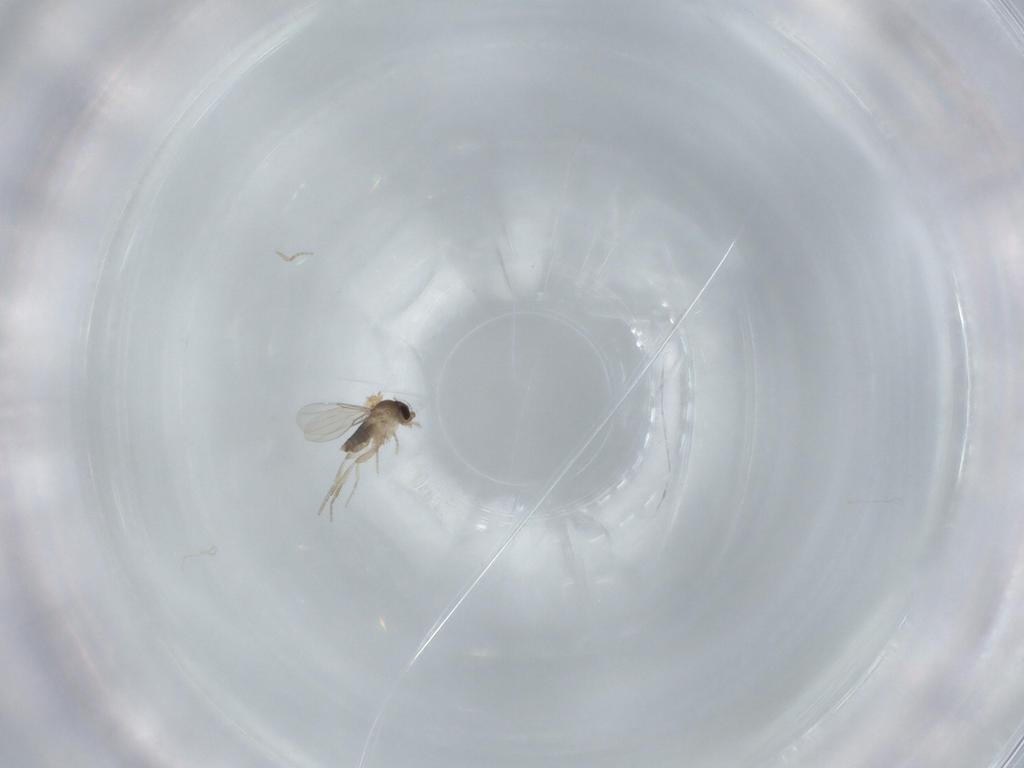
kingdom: Animalia
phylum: Arthropoda
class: Insecta
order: Diptera
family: Phoridae
